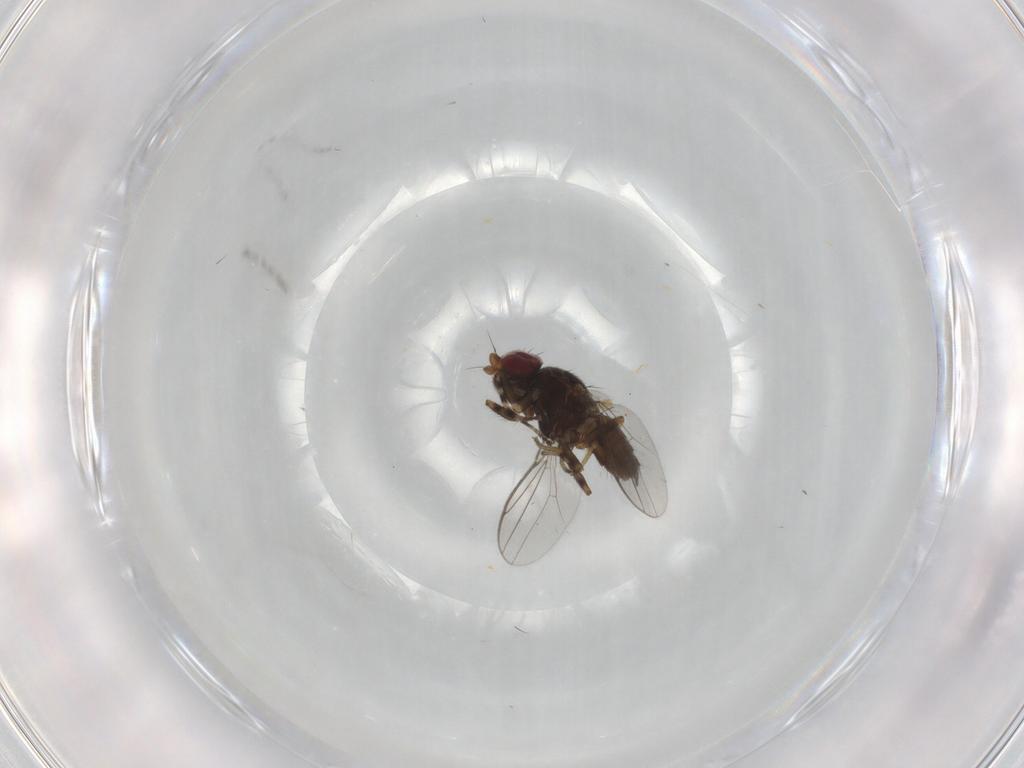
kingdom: Animalia
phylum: Arthropoda
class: Insecta
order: Diptera
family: Chloropidae
